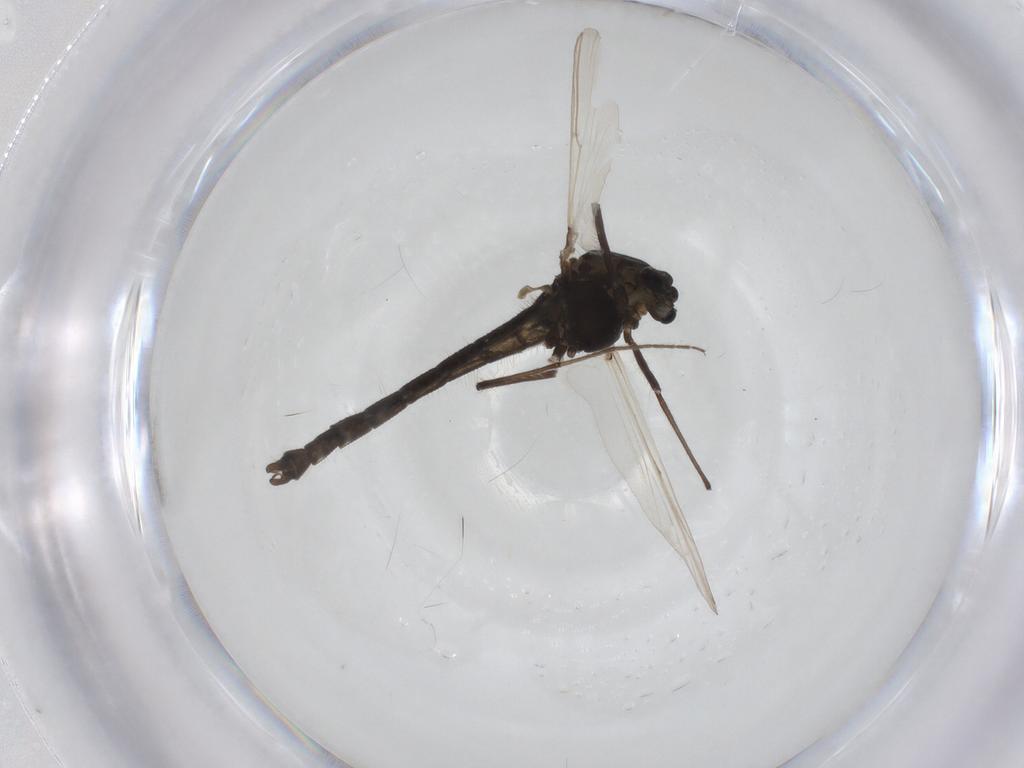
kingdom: Animalia
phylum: Arthropoda
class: Insecta
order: Diptera
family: Chironomidae
